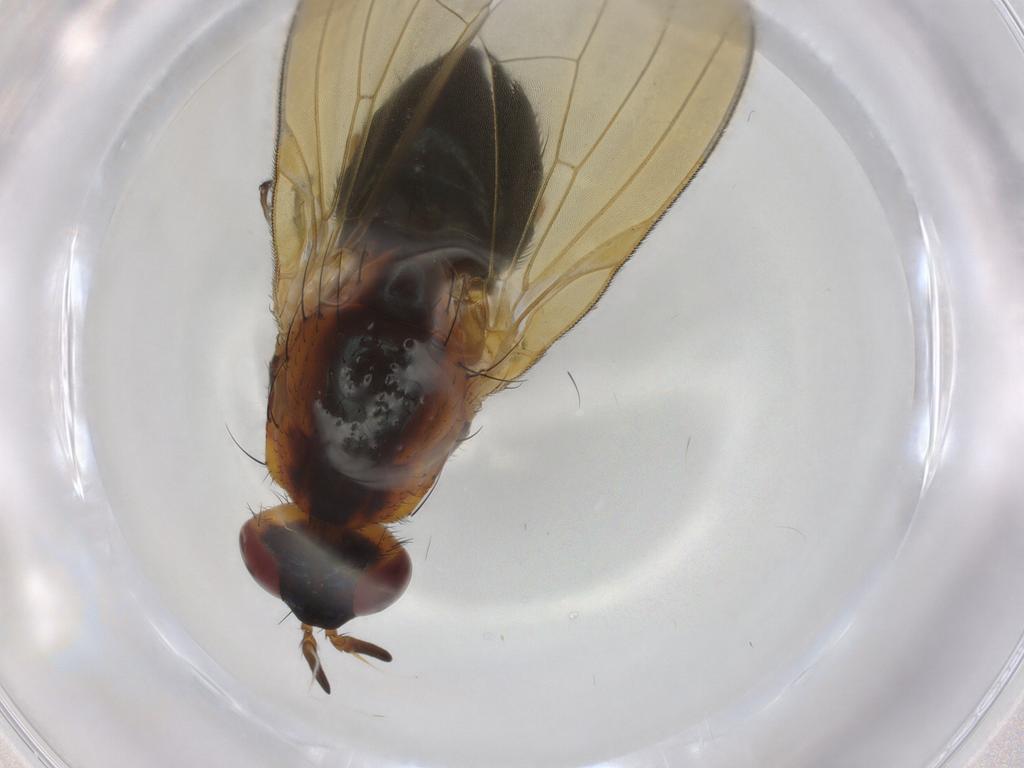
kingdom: Animalia
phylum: Arthropoda
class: Insecta
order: Diptera
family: Lauxaniidae
